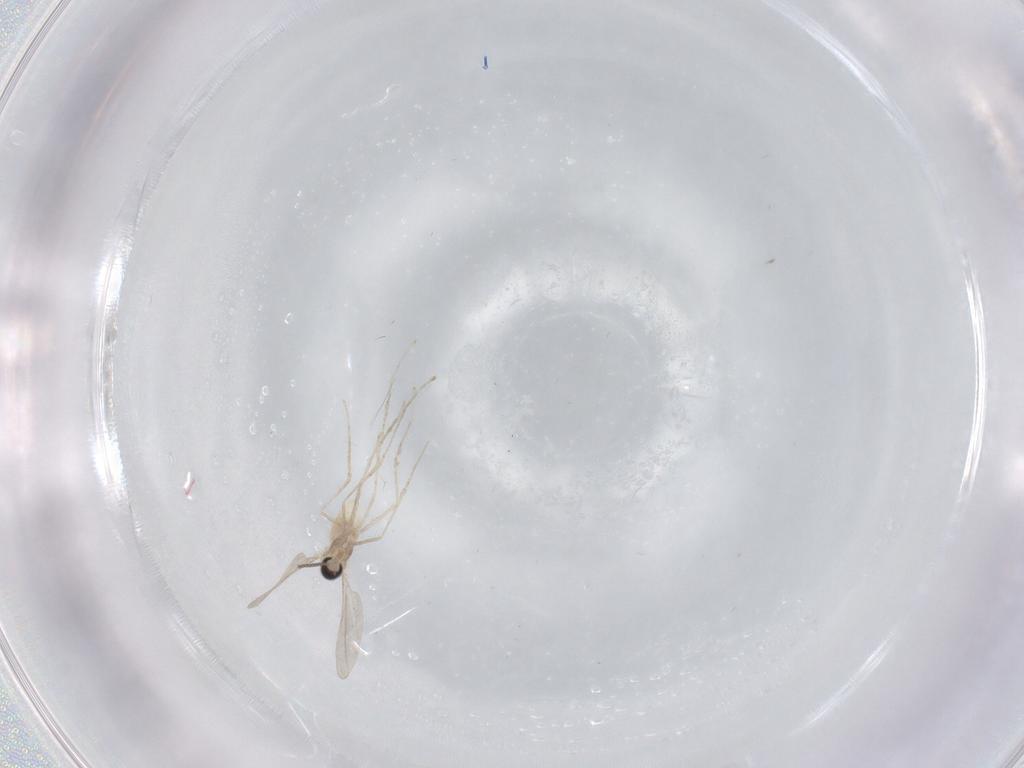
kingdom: Animalia
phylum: Arthropoda
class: Insecta
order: Diptera
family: Cecidomyiidae
